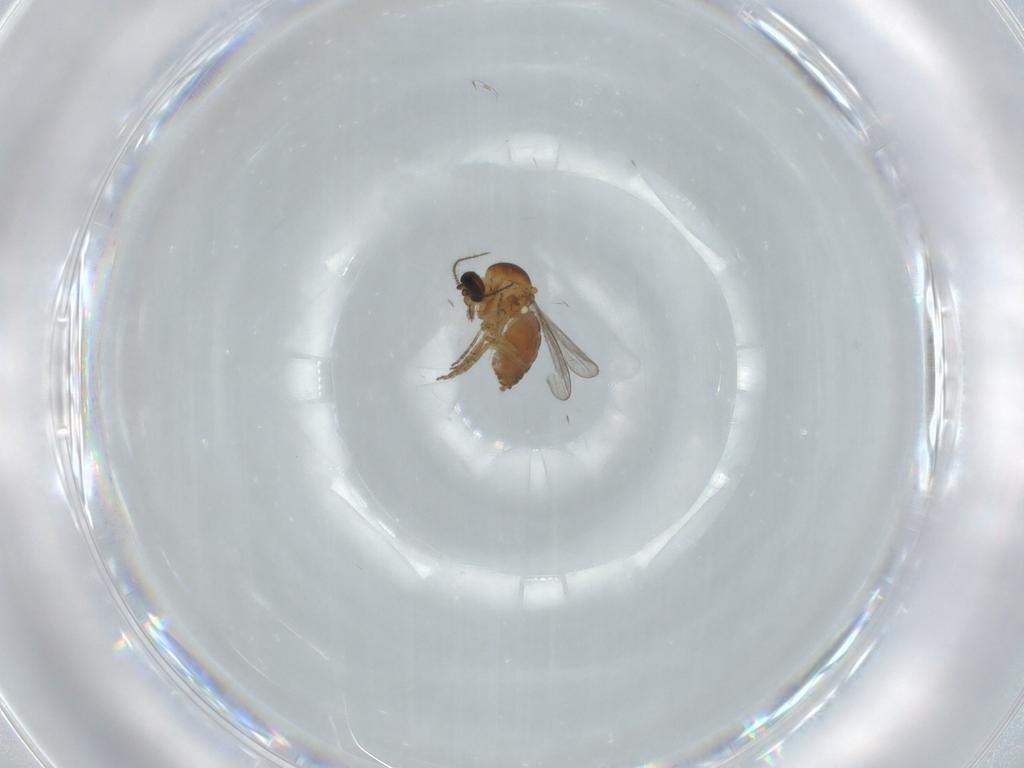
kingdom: Animalia
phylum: Arthropoda
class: Insecta
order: Diptera
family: Ceratopogonidae
